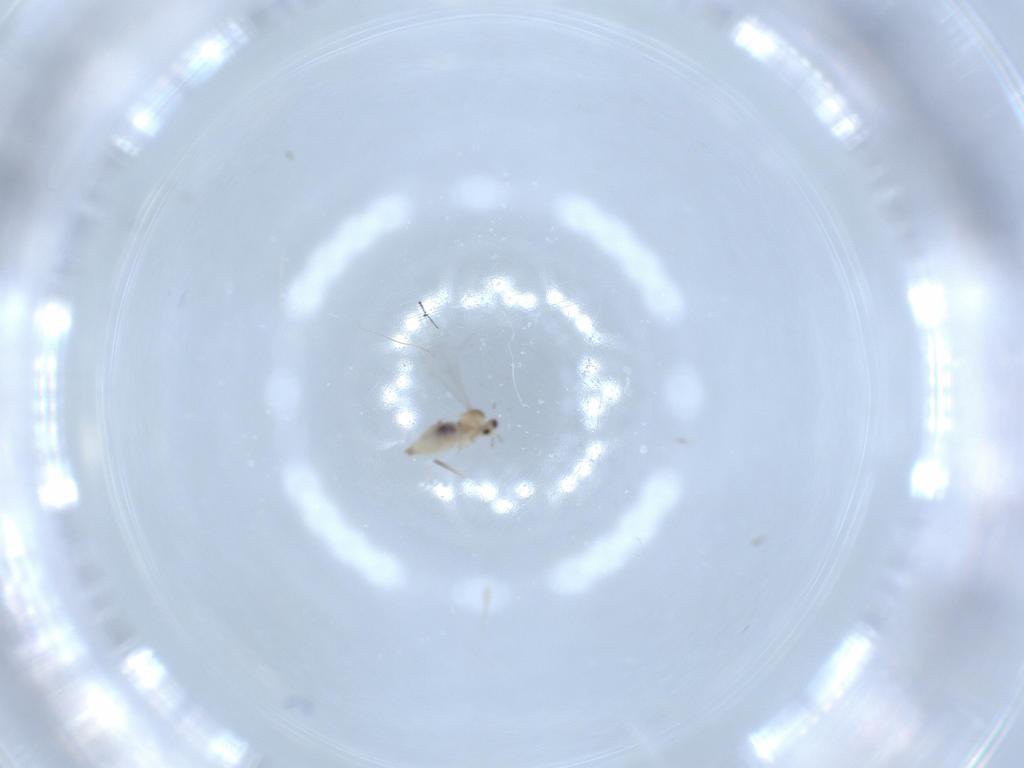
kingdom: Animalia
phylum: Arthropoda
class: Insecta
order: Diptera
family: Cecidomyiidae
